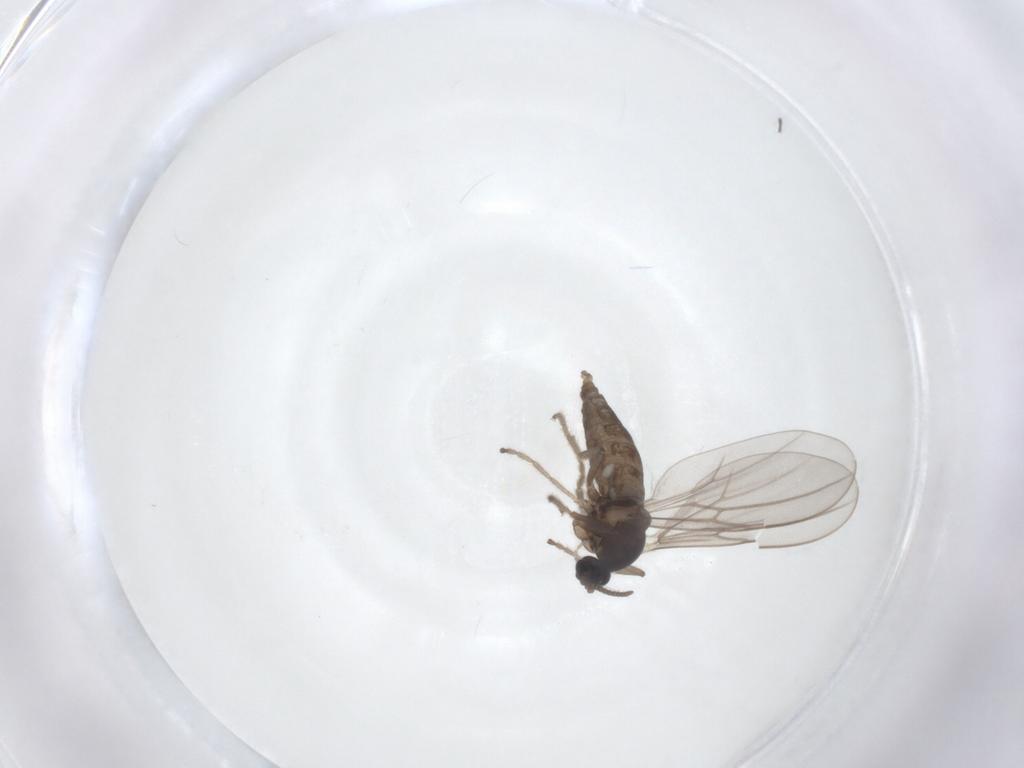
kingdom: Animalia
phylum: Arthropoda
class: Insecta
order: Diptera
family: Cecidomyiidae
